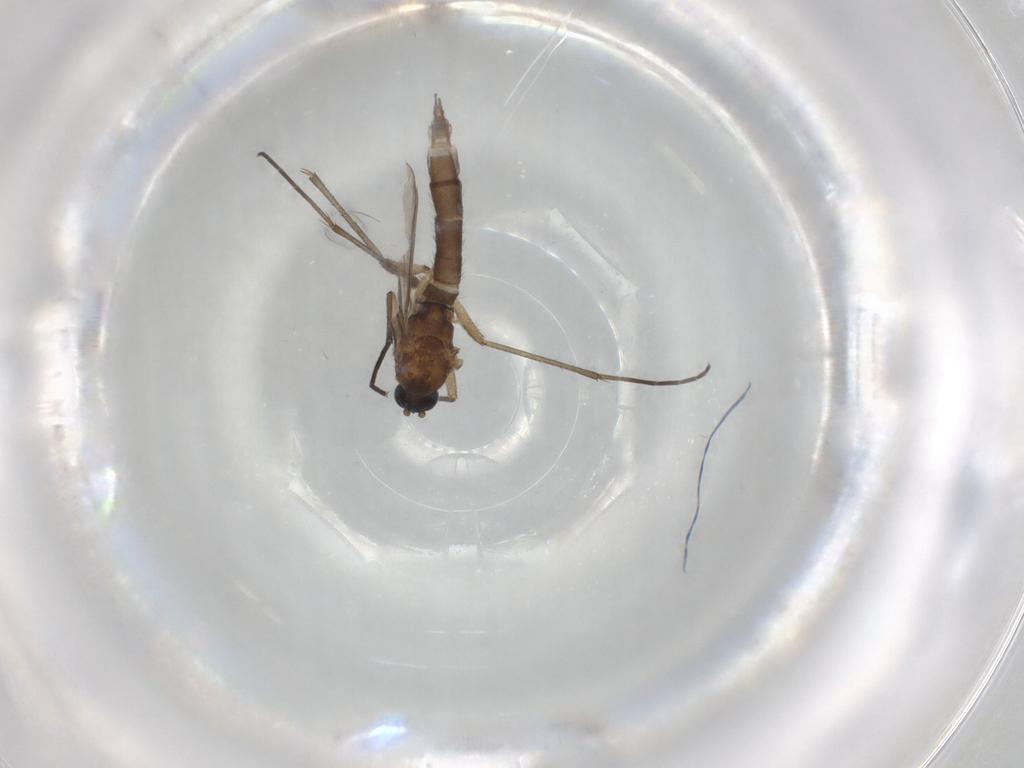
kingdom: Animalia
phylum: Arthropoda
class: Insecta
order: Diptera
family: Sciaridae
